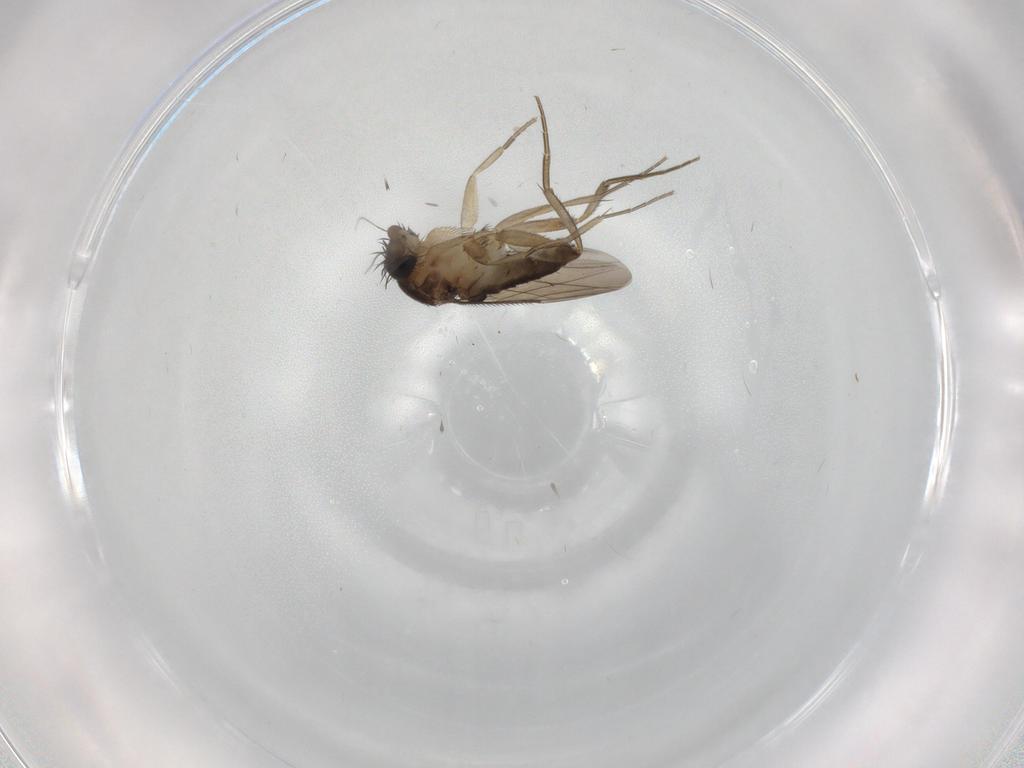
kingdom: Animalia
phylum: Arthropoda
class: Insecta
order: Diptera
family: Phoridae
